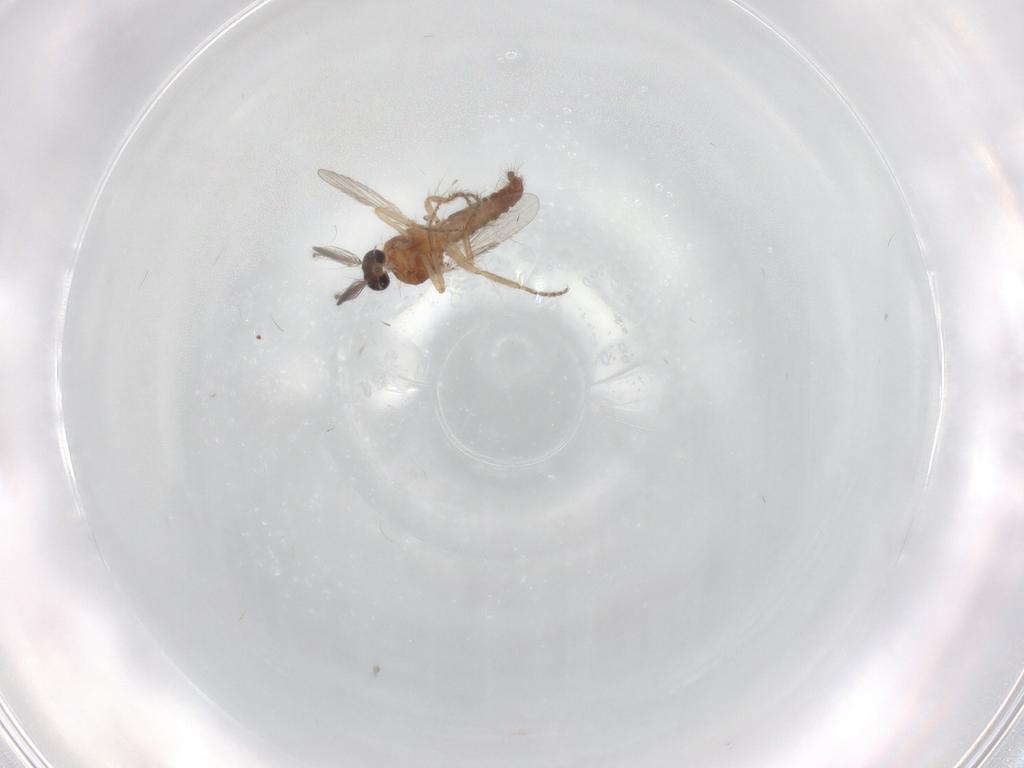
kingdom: Animalia
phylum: Arthropoda
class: Insecta
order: Diptera
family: Ceratopogonidae
